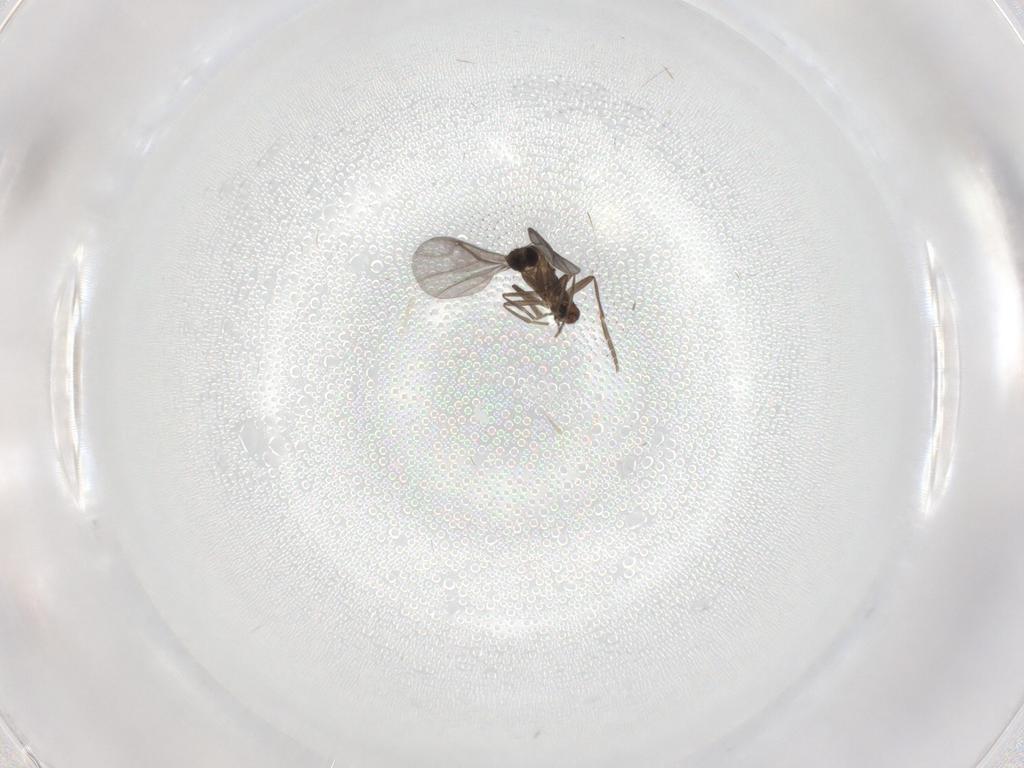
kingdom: Animalia
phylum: Arthropoda
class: Insecta
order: Diptera
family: Phoridae
